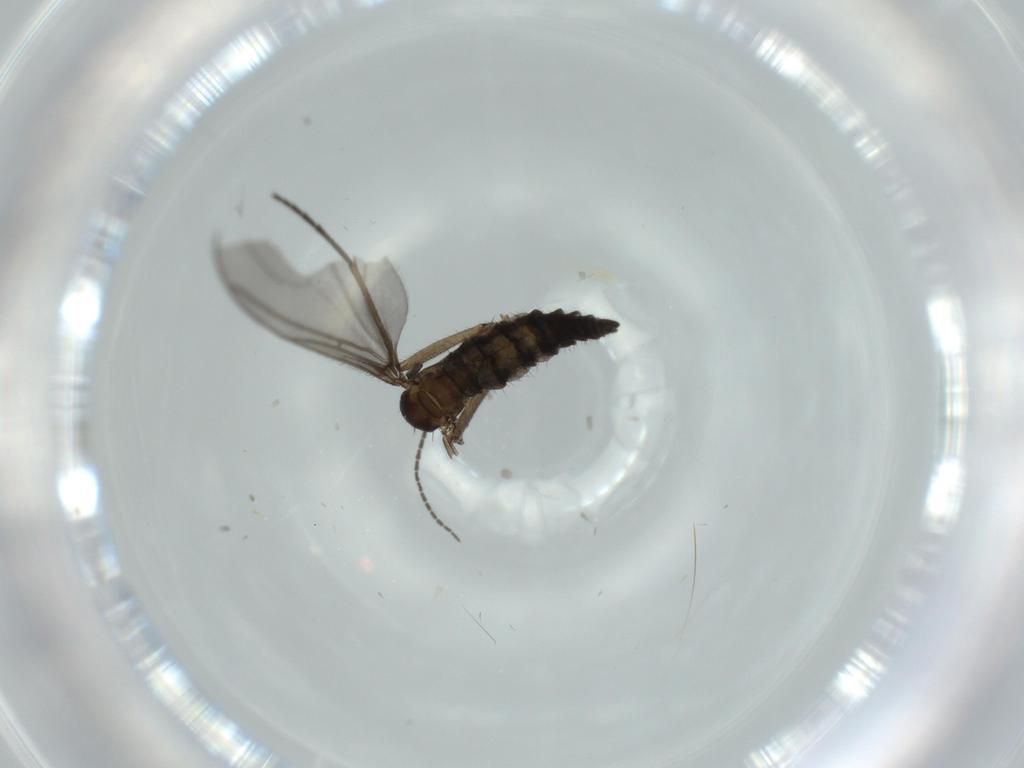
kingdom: Animalia
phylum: Arthropoda
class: Insecta
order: Diptera
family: Sciaridae
